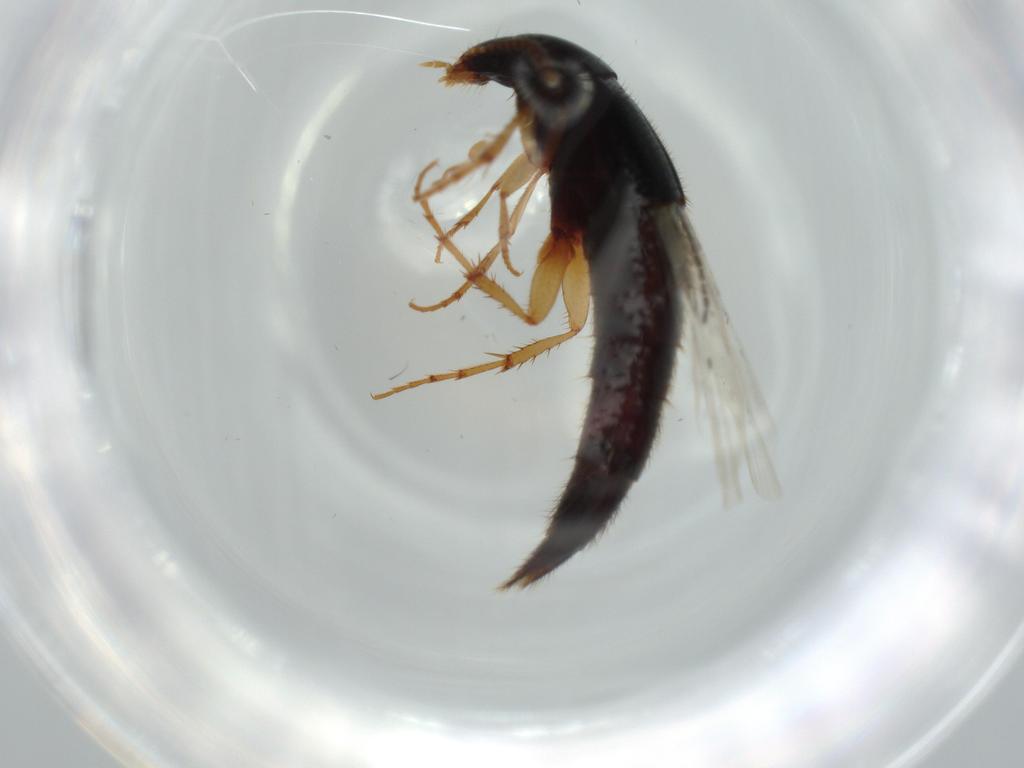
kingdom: Animalia
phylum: Arthropoda
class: Insecta
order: Coleoptera
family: Staphylinidae
